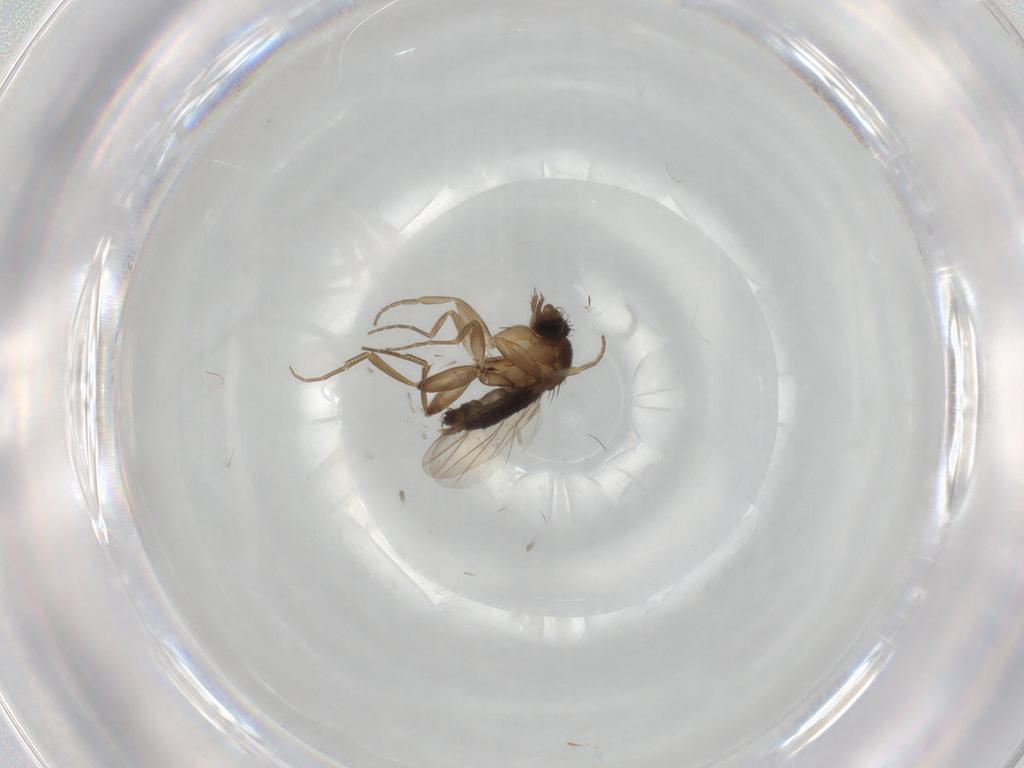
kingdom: Animalia
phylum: Arthropoda
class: Insecta
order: Diptera
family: Phoridae
